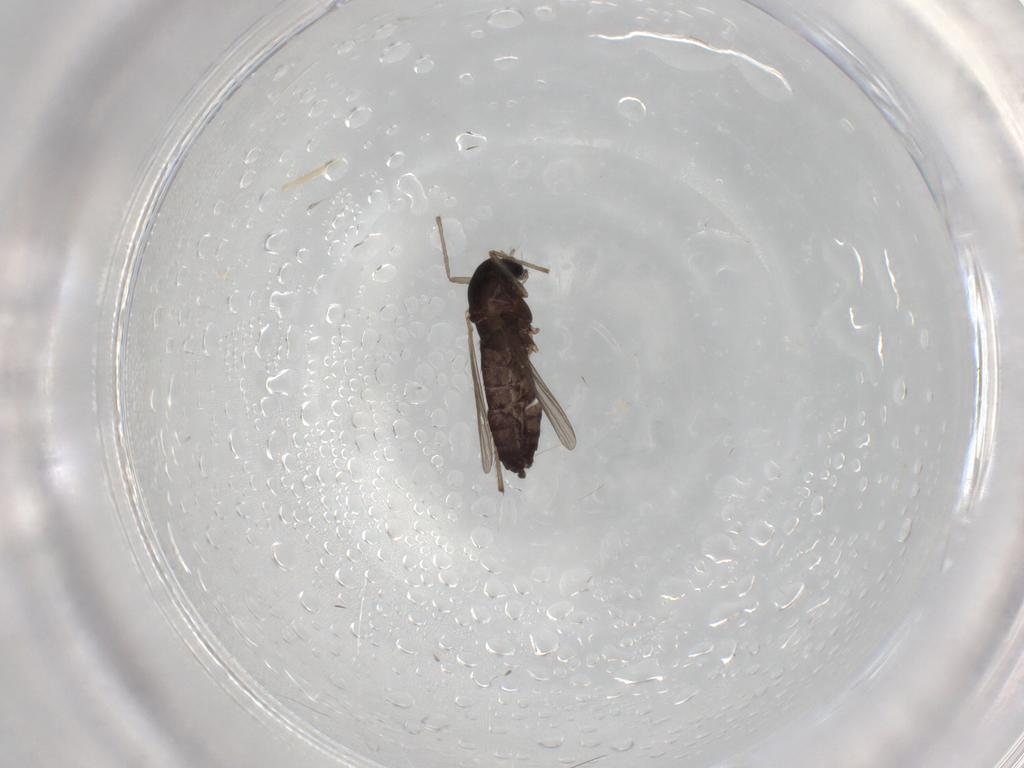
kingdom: Animalia
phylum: Arthropoda
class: Insecta
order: Diptera
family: Chironomidae
